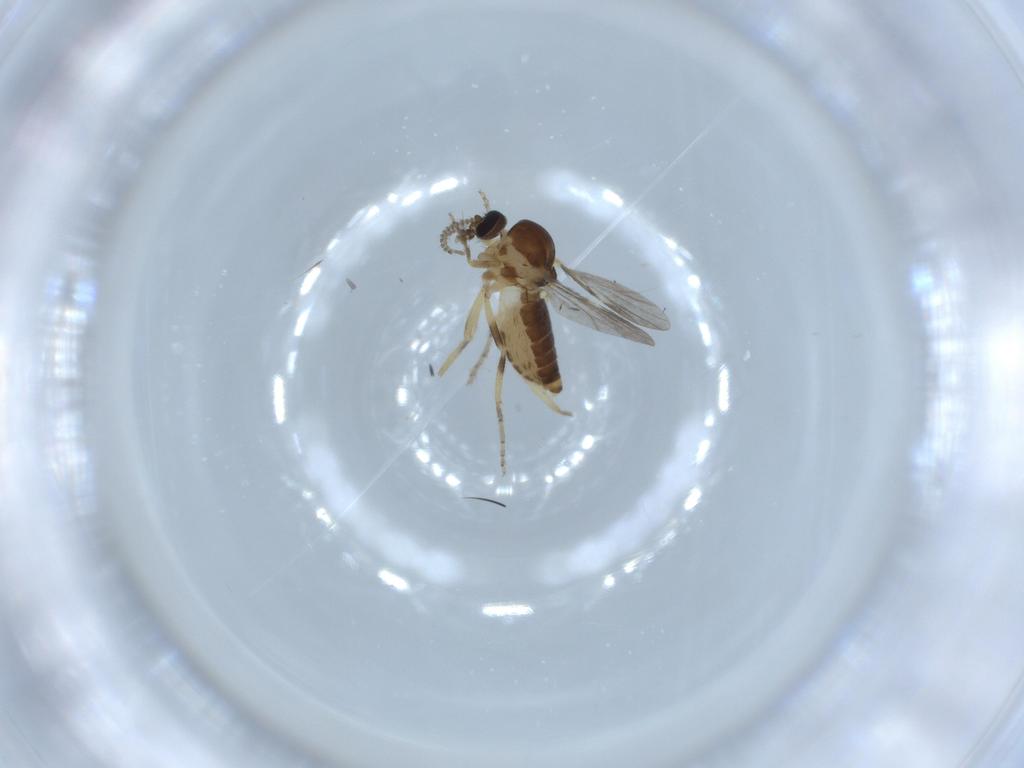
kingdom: Animalia
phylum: Arthropoda
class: Insecta
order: Diptera
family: Ceratopogonidae
